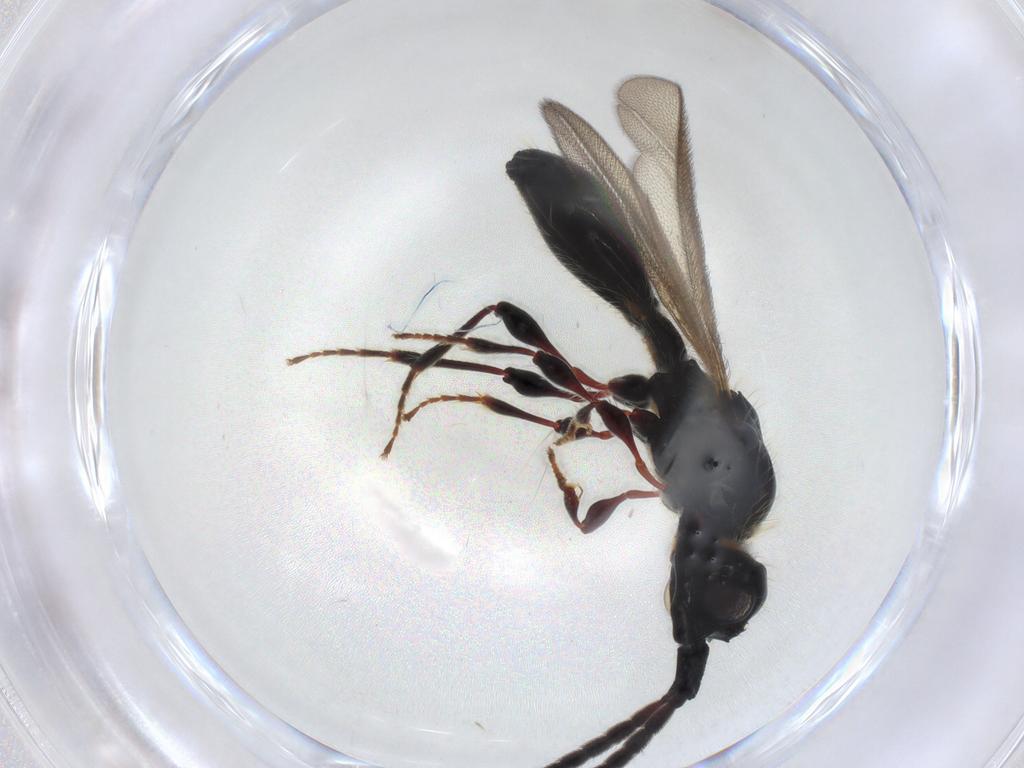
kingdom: Animalia
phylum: Arthropoda
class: Insecta
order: Hymenoptera
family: Diapriidae
